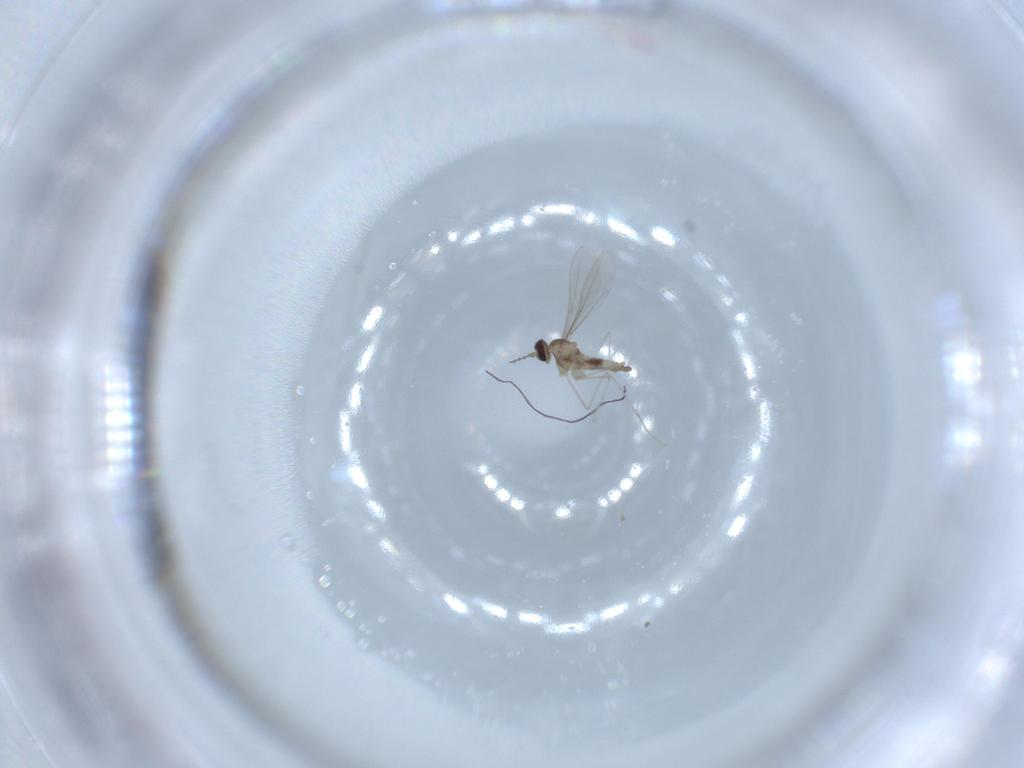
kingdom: Animalia
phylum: Arthropoda
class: Insecta
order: Diptera
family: Cecidomyiidae
